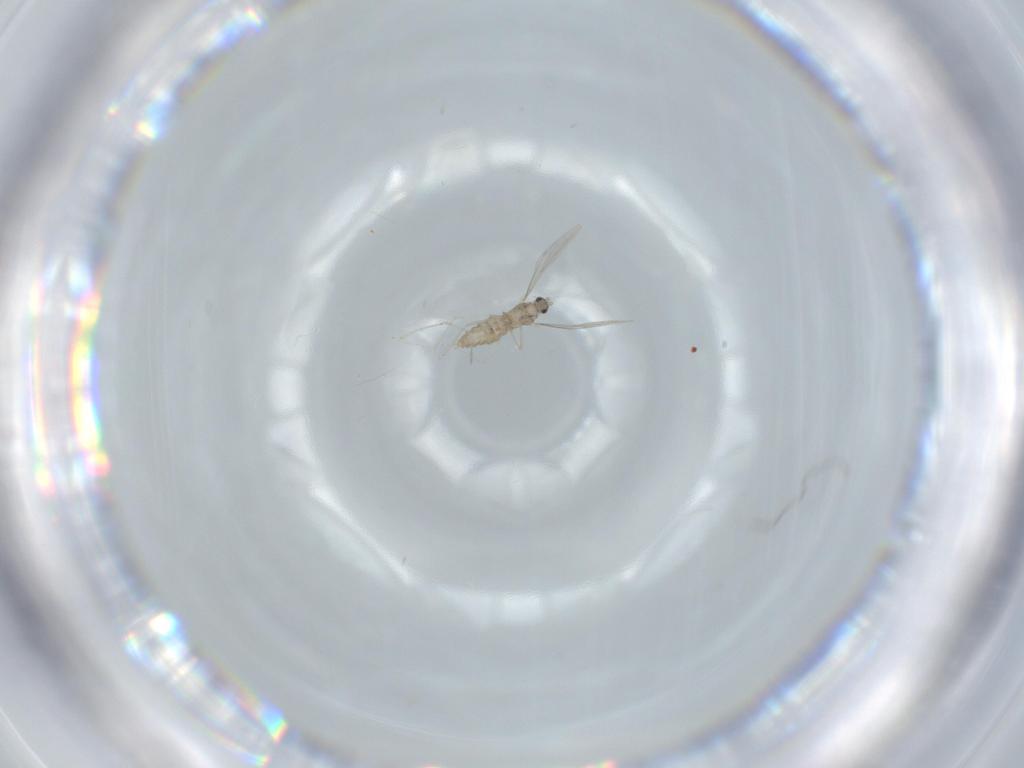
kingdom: Animalia
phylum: Arthropoda
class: Insecta
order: Diptera
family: Cecidomyiidae
